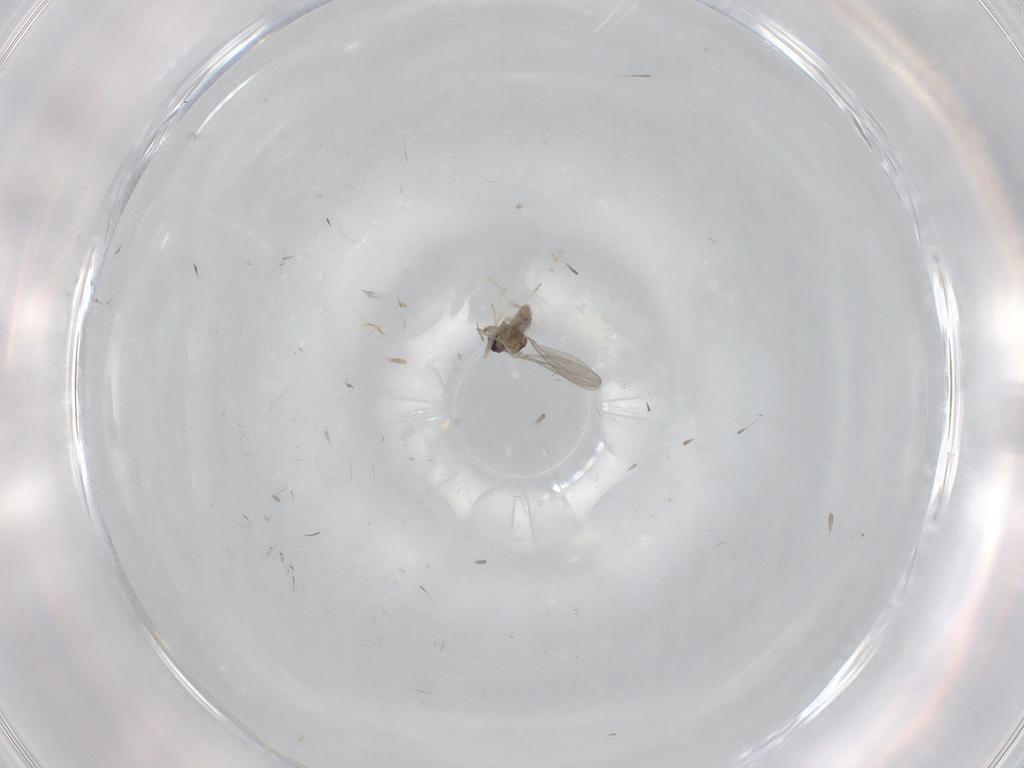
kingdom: Animalia
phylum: Arthropoda
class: Insecta
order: Diptera
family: Cecidomyiidae
